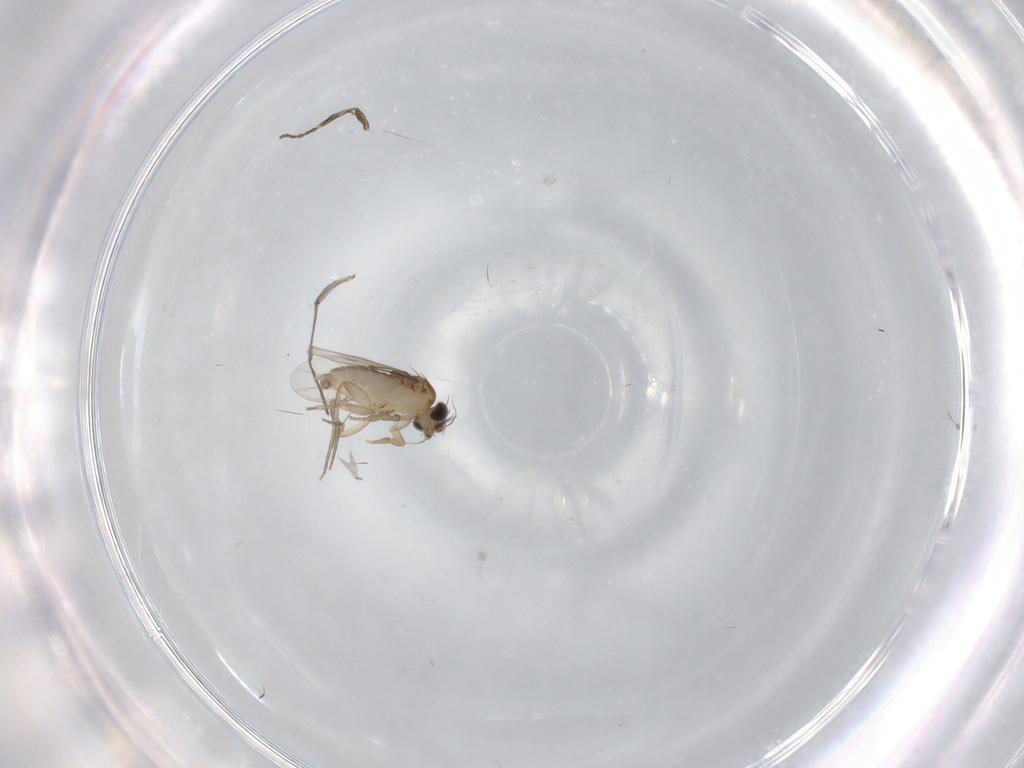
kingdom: Animalia
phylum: Arthropoda
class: Insecta
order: Diptera
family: Phoridae
